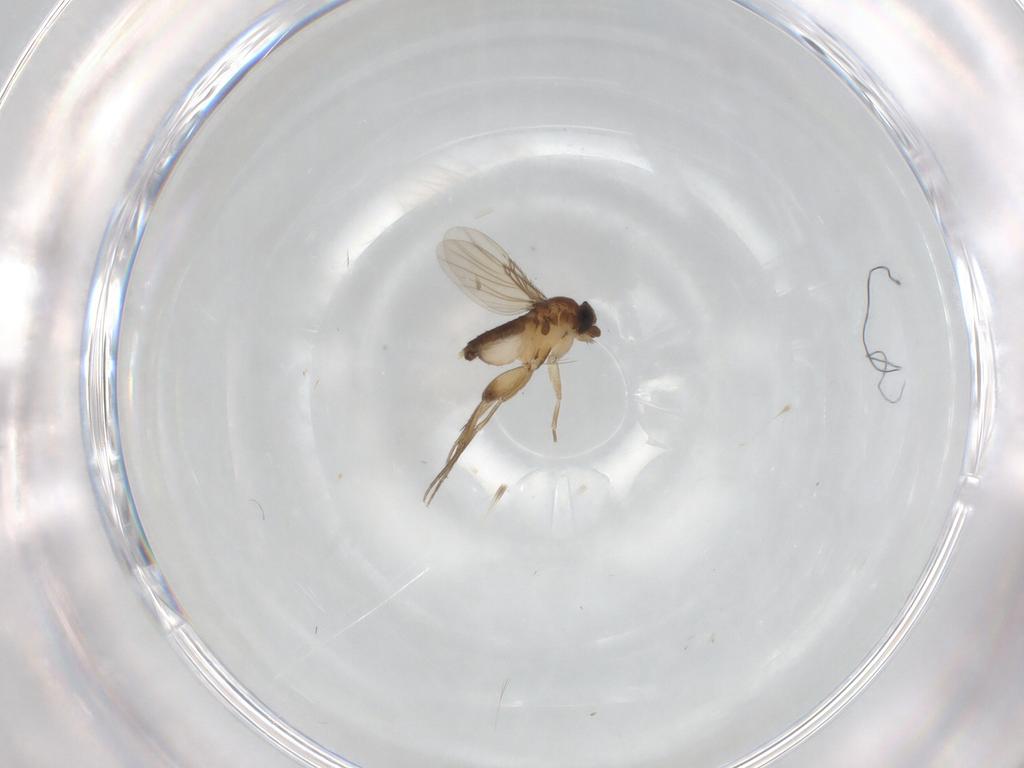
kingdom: Animalia
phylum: Arthropoda
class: Insecta
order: Diptera
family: Phoridae
